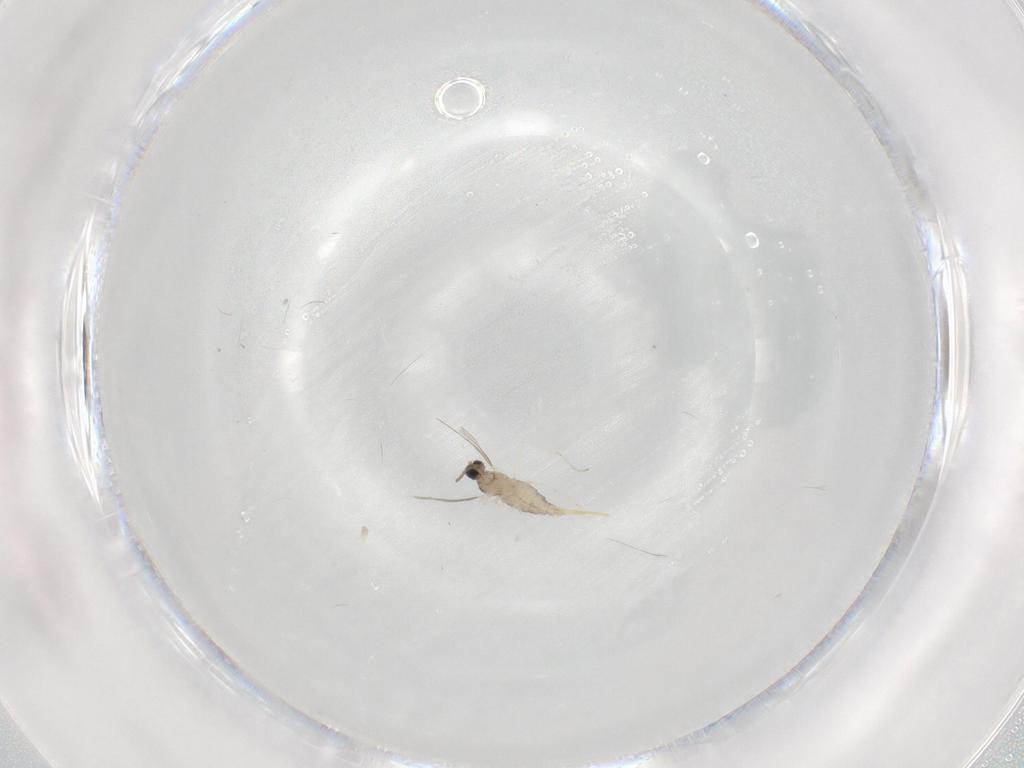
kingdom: Animalia
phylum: Arthropoda
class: Insecta
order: Diptera
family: Cecidomyiidae
